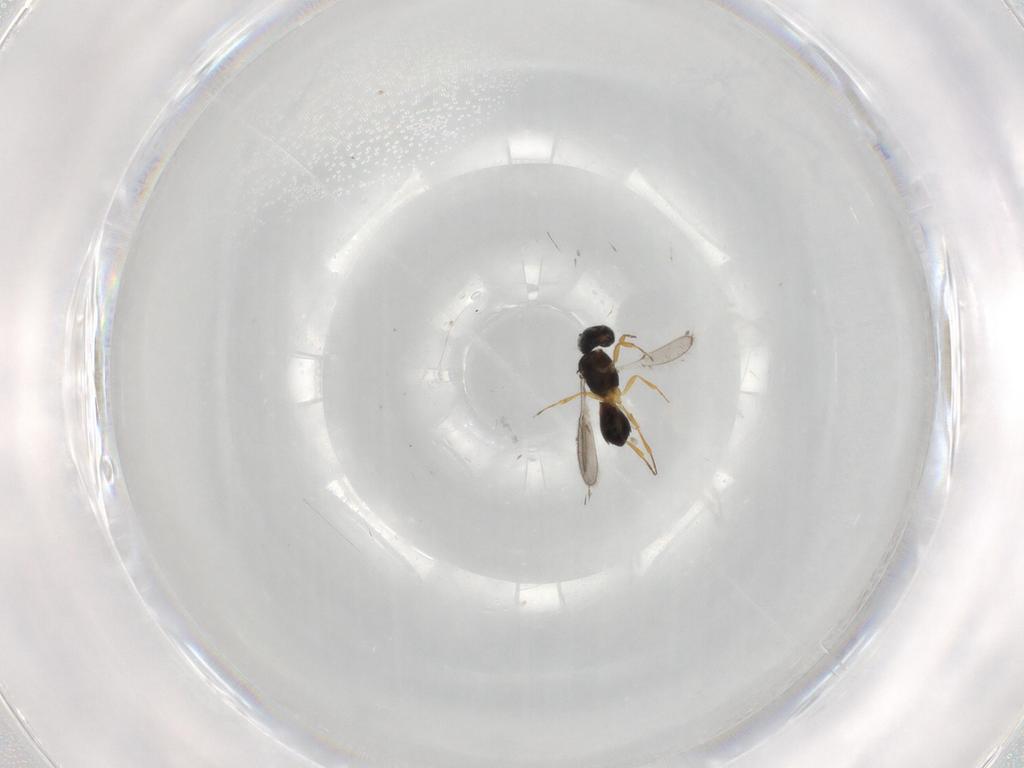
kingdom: Animalia
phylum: Arthropoda
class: Insecta
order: Hymenoptera
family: Scelionidae
